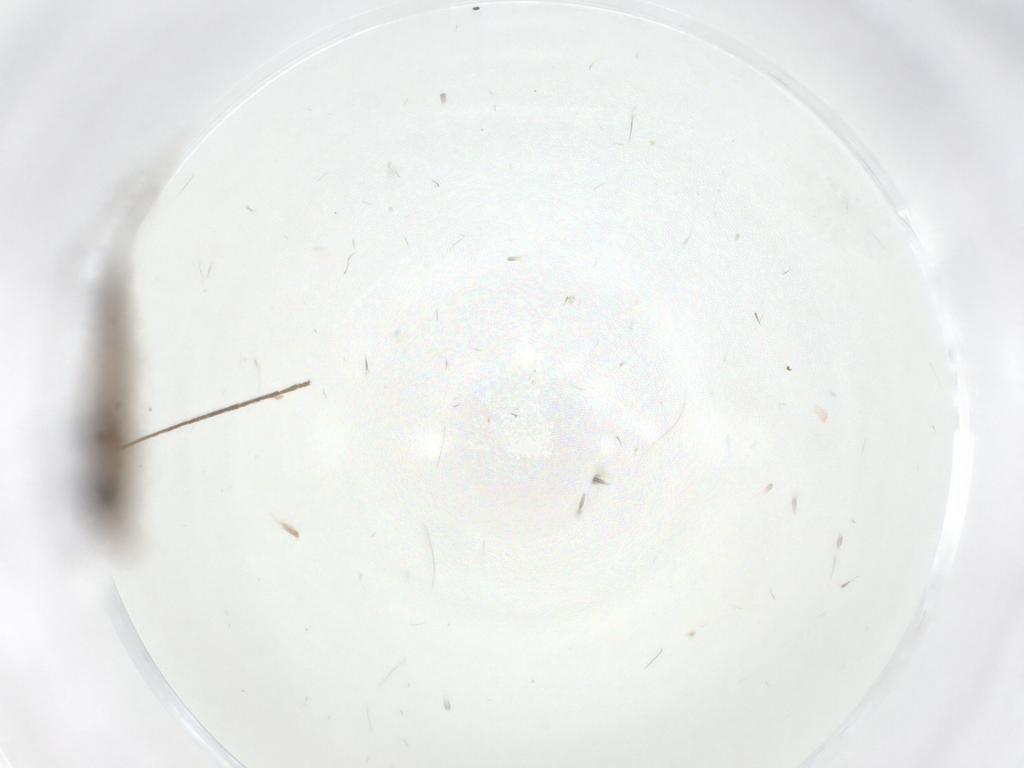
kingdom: Animalia
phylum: Arthropoda
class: Insecta
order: Diptera
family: Limoniidae
